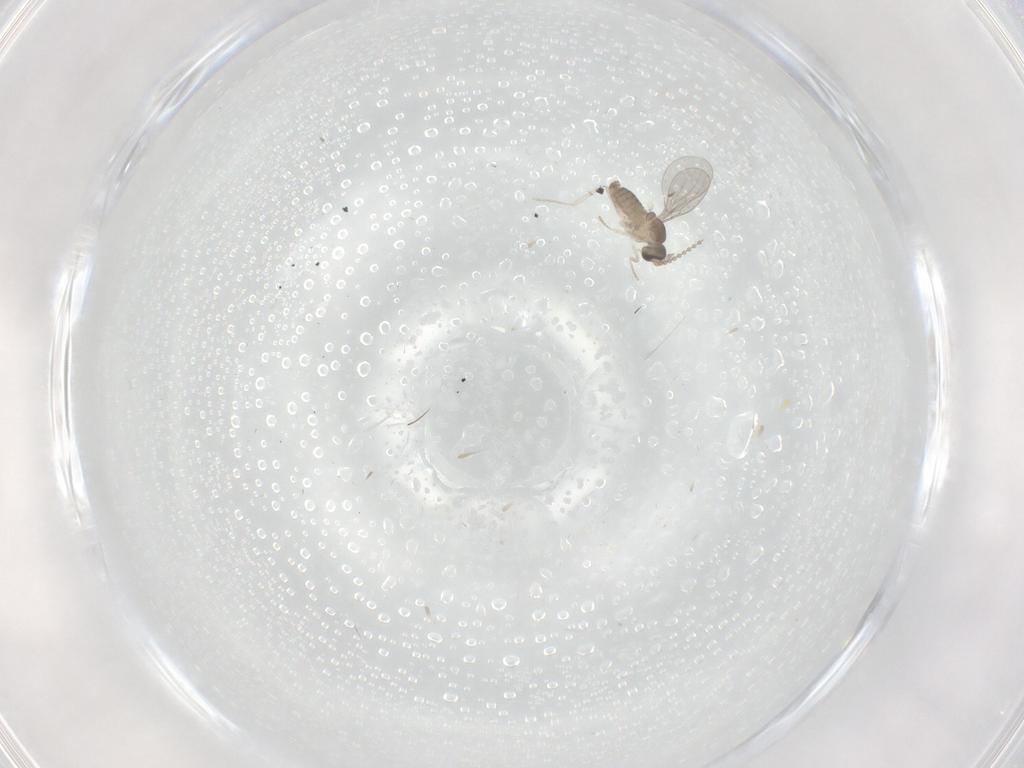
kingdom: Animalia
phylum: Arthropoda
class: Insecta
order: Diptera
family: Cecidomyiidae
